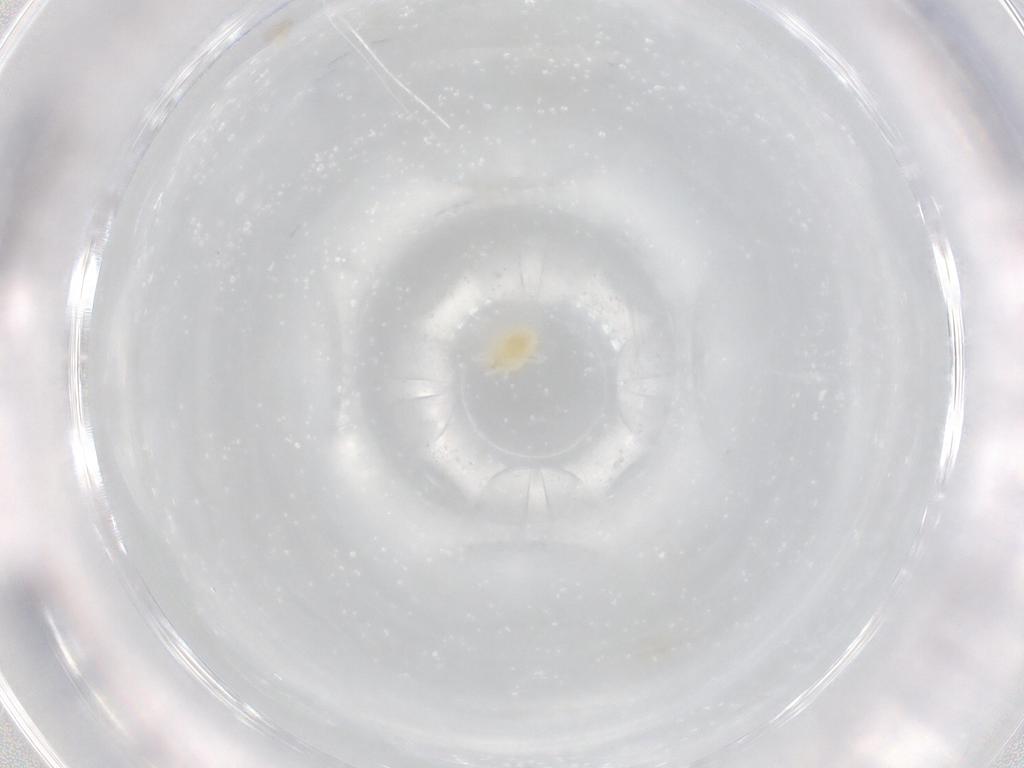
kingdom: Animalia
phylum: Arthropoda
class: Arachnida
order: Trombidiformes
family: Tetranychidae
